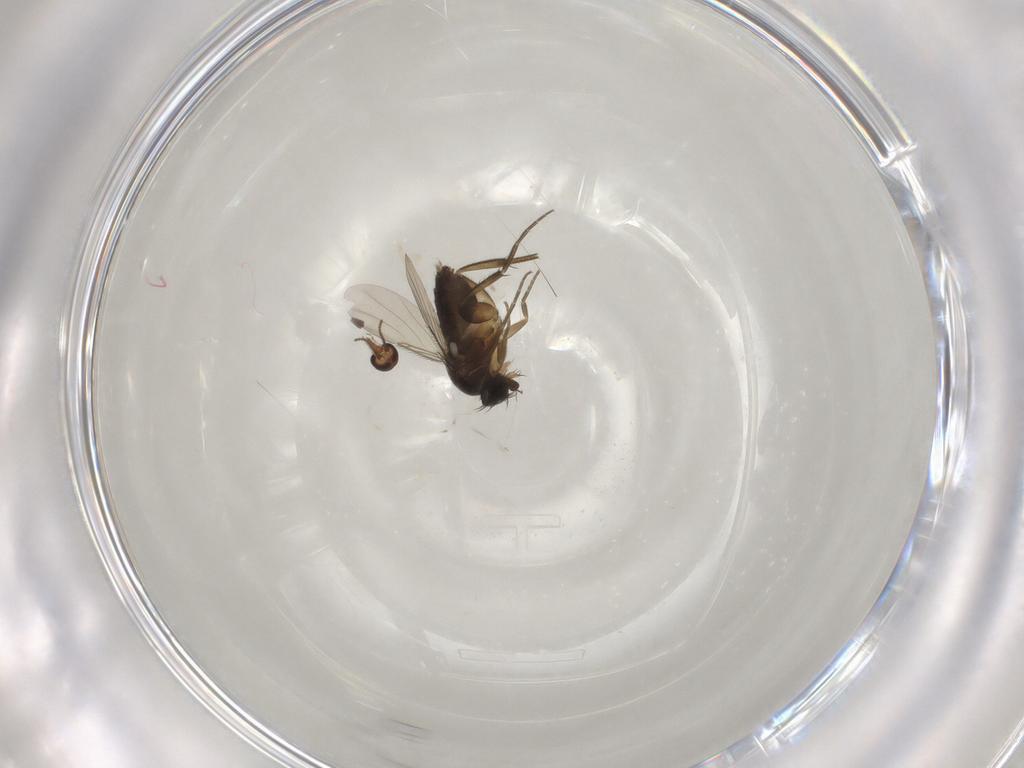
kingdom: Animalia
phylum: Arthropoda
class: Insecta
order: Diptera
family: Ceratopogonidae
